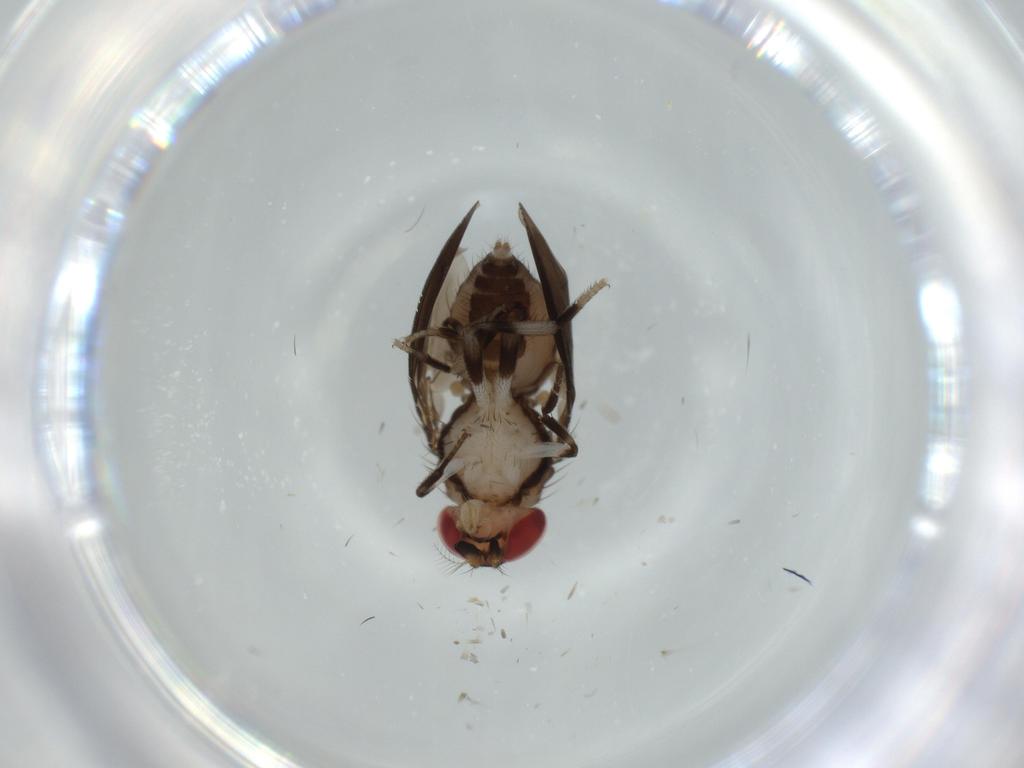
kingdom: Animalia
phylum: Arthropoda
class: Insecta
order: Diptera
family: Drosophilidae
